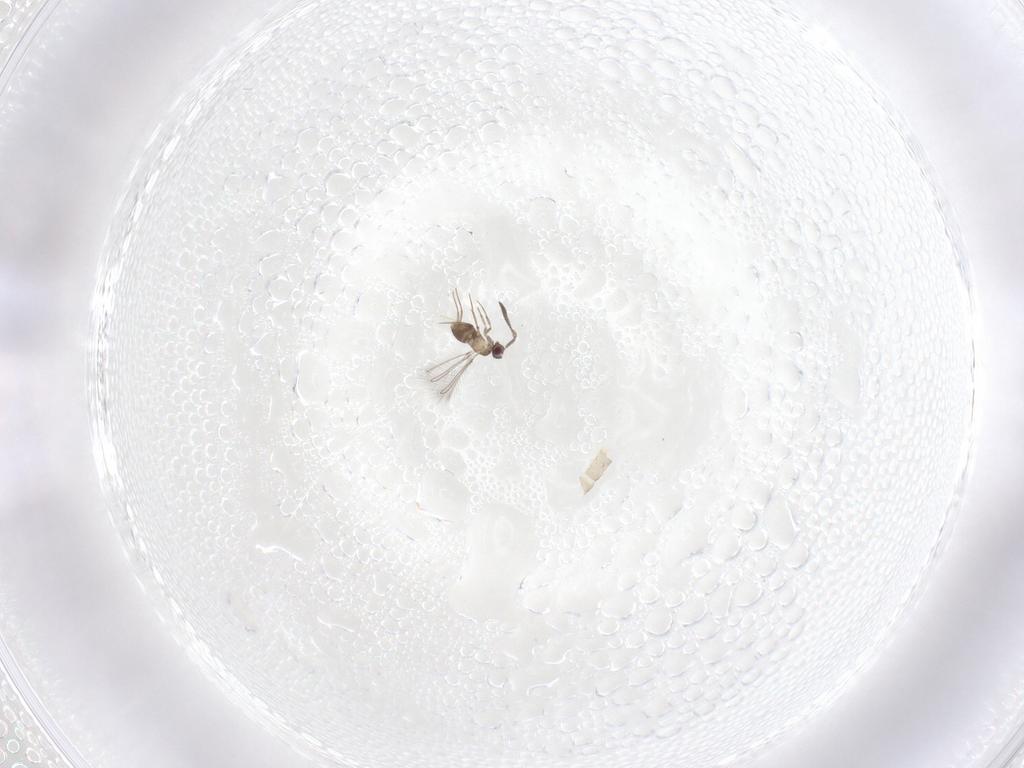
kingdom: Animalia
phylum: Arthropoda
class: Insecta
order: Hymenoptera
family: Mymaridae
